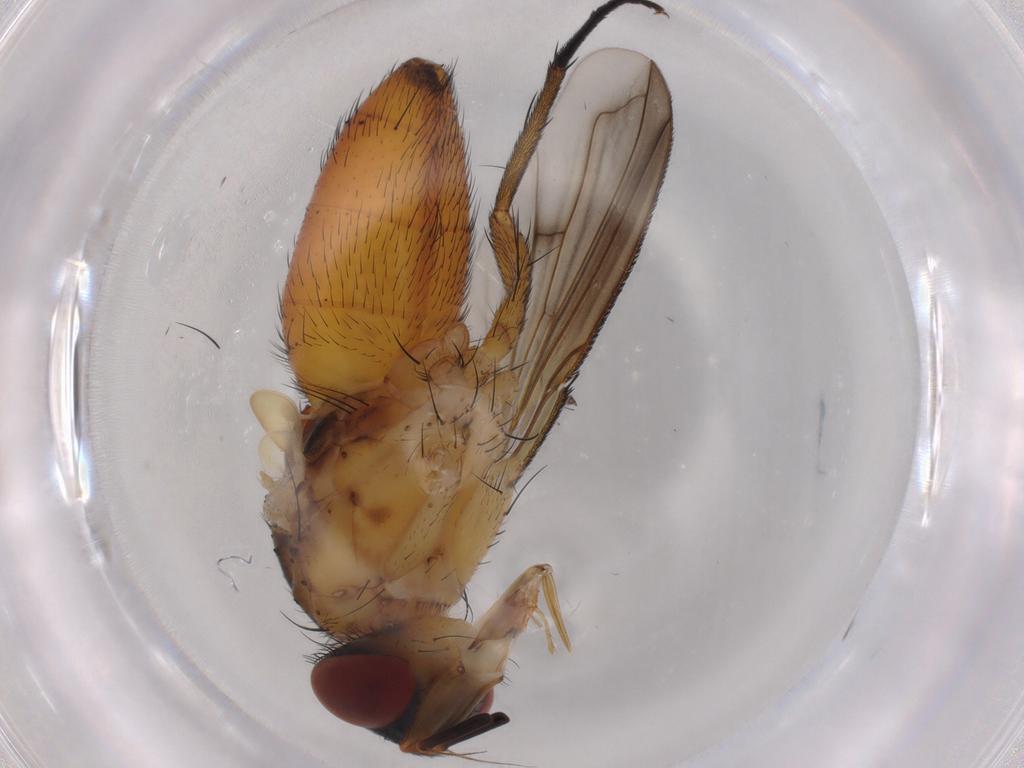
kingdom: Animalia
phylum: Arthropoda
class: Insecta
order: Diptera
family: Tachinidae
